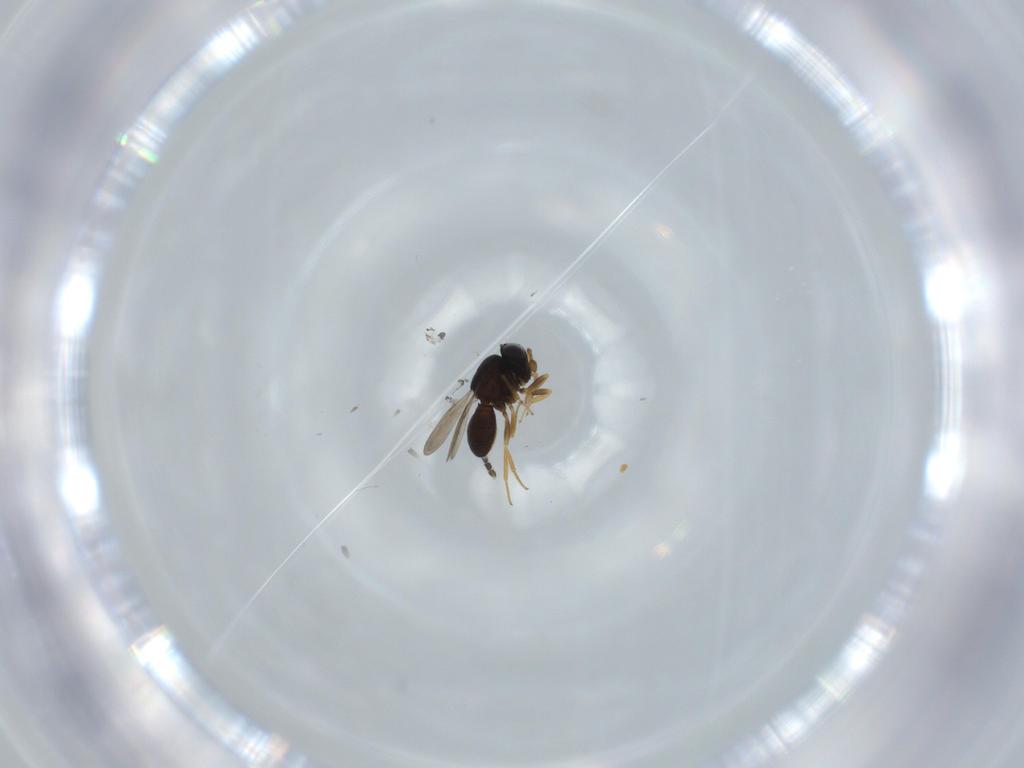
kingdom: Animalia
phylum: Arthropoda
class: Insecta
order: Hymenoptera
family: Scelionidae
